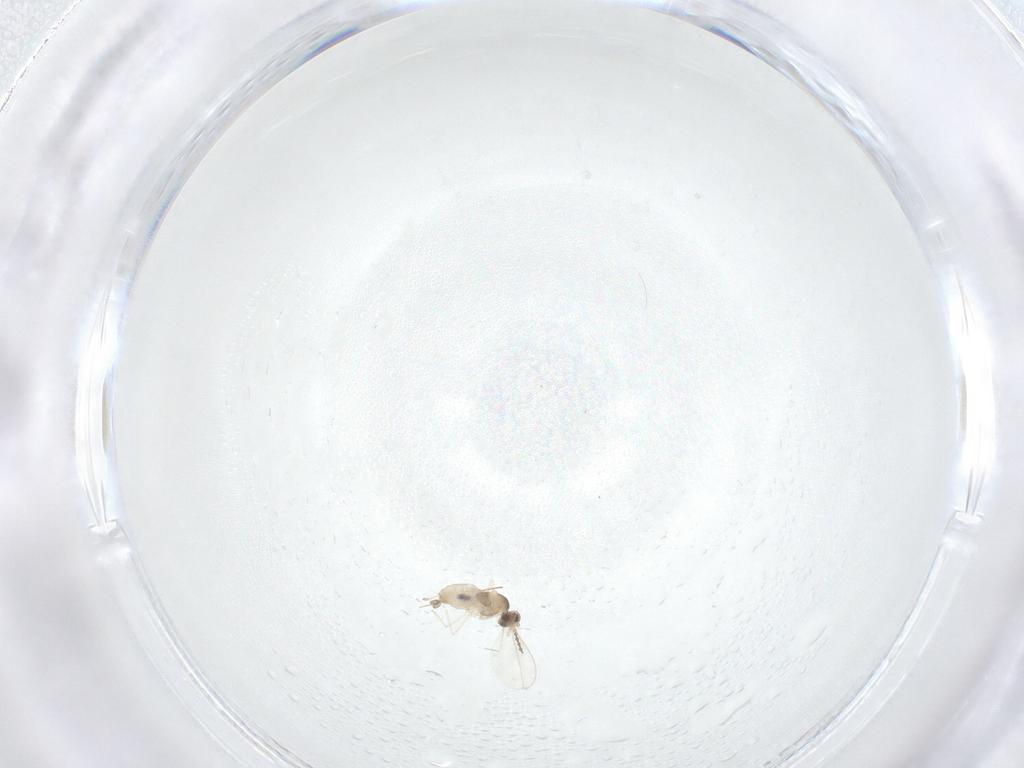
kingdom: Animalia
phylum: Arthropoda
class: Insecta
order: Diptera
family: Cecidomyiidae
